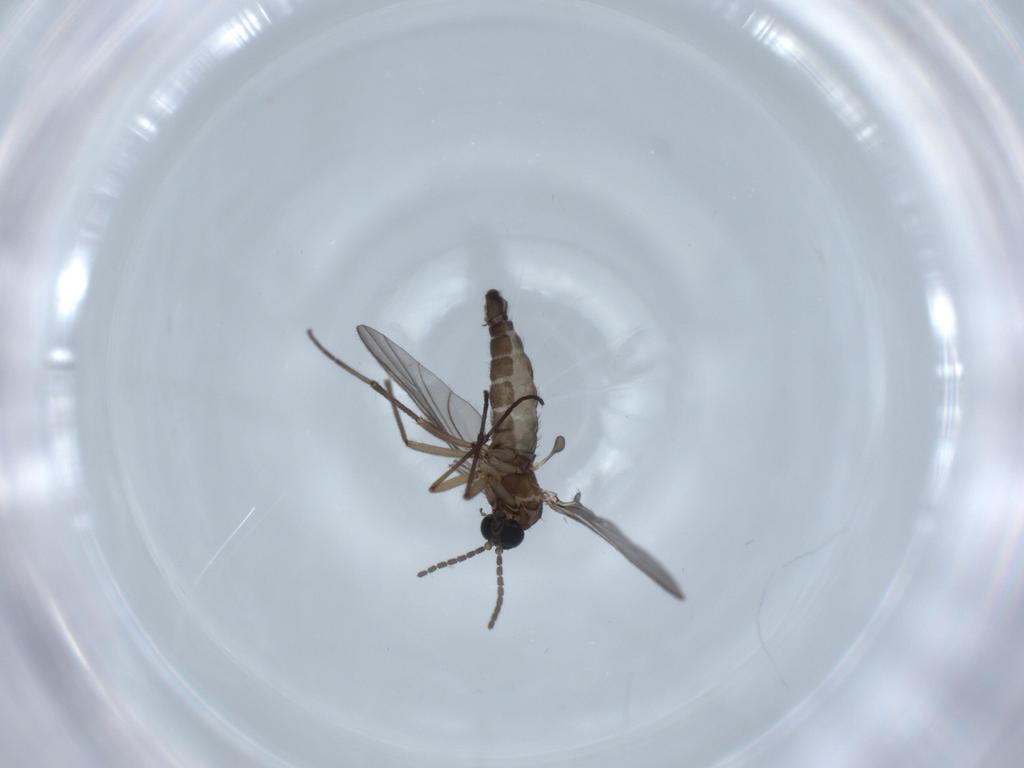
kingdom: Animalia
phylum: Arthropoda
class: Insecta
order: Diptera
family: Sciaridae
